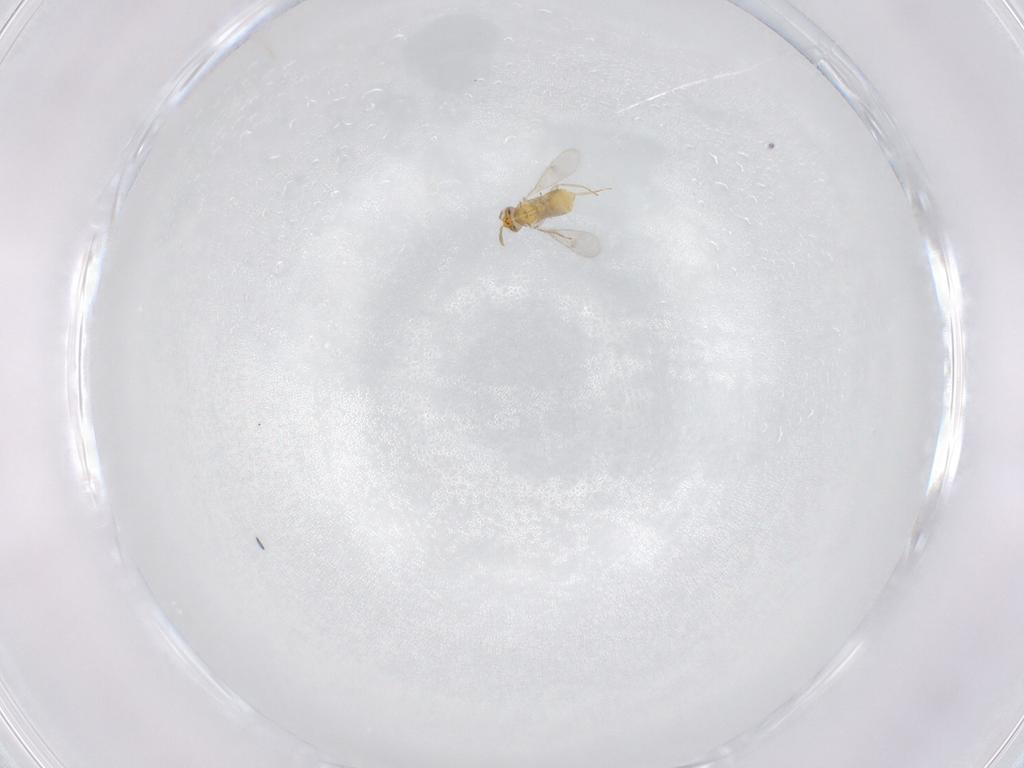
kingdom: Animalia
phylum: Arthropoda
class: Insecta
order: Hymenoptera
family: Aphelinidae
